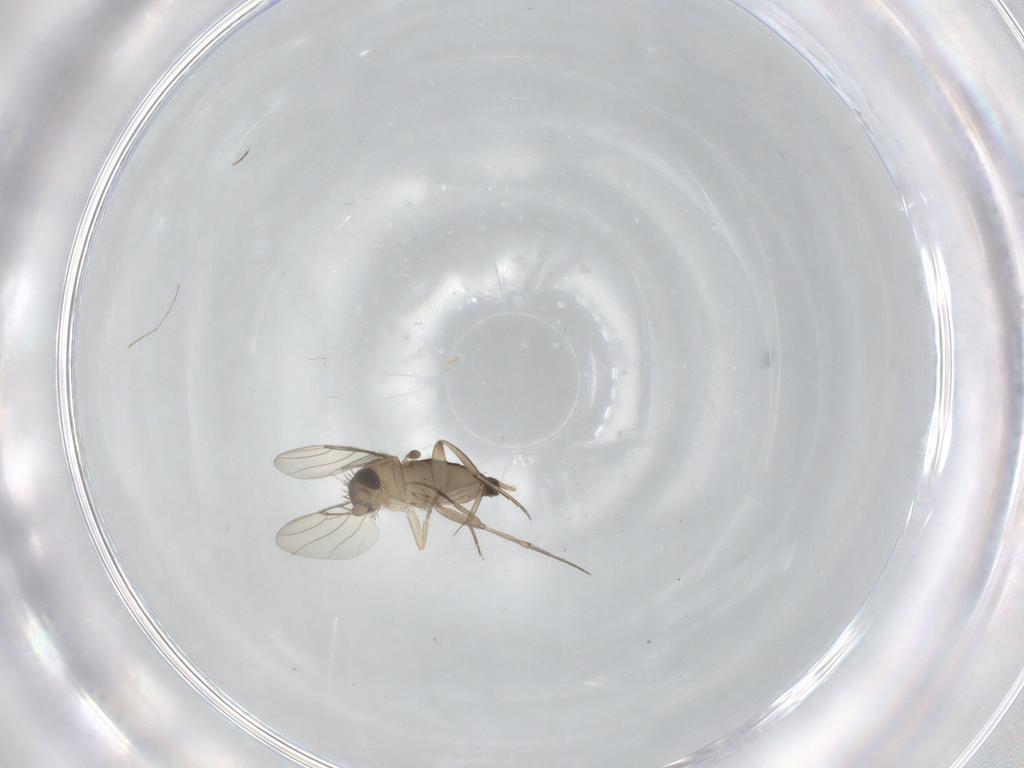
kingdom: Animalia
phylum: Arthropoda
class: Insecta
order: Diptera
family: Phoridae
